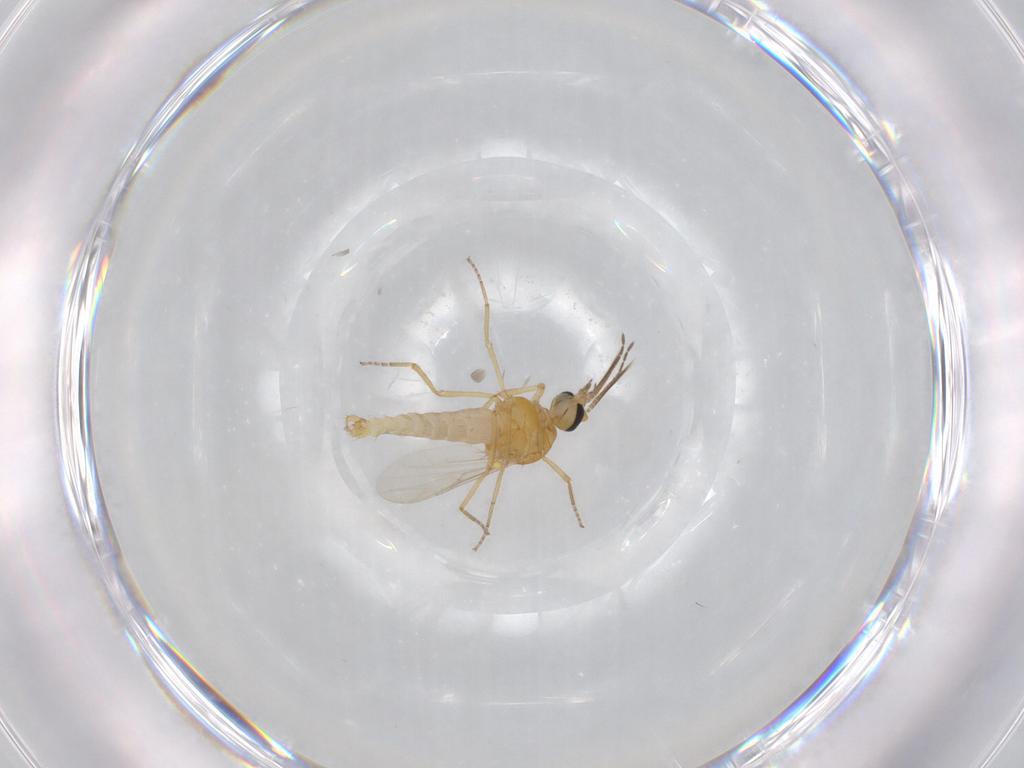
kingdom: Animalia
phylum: Arthropoda
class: Insecta
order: Diptera
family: Ceratopogonidae
